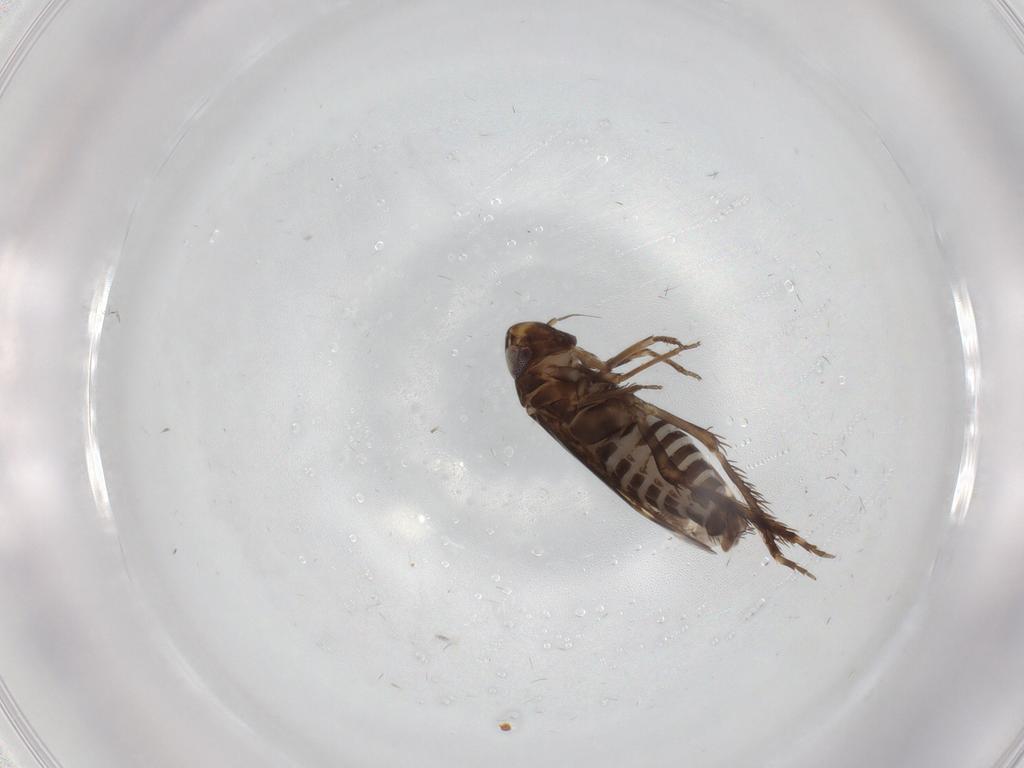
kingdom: Animalia
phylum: Arthropoda
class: Insecta
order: Hemiptera
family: Cicadellidae
